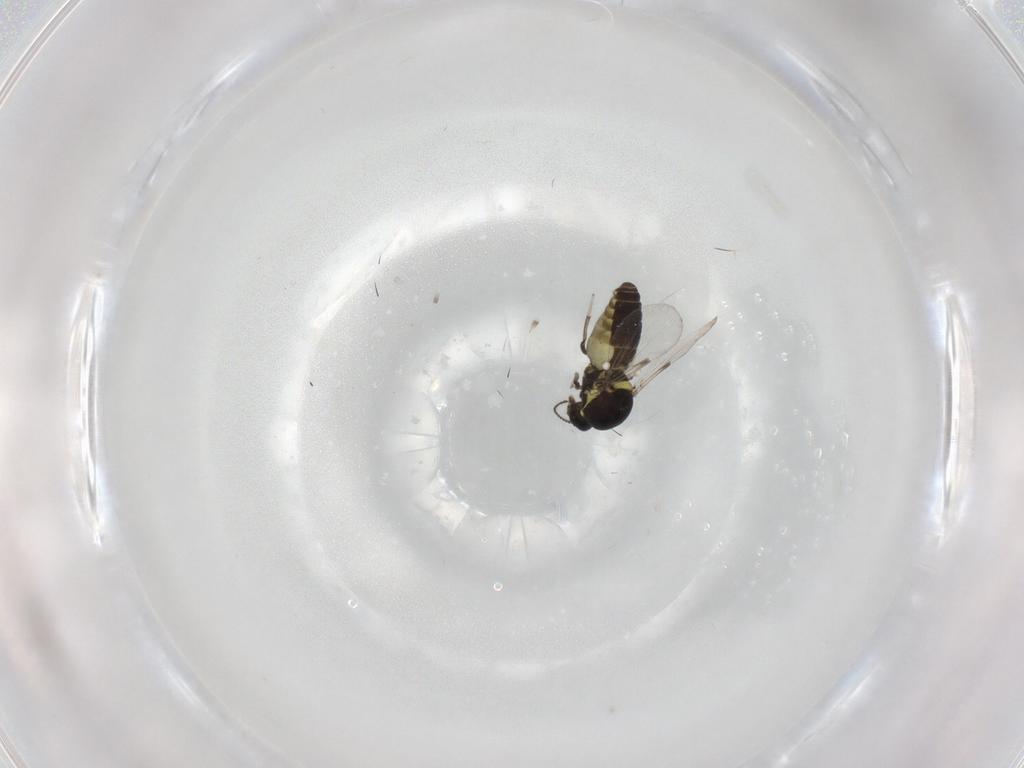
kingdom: Animalia
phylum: Arthropoda
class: Insecta
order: Diptera
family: Ceratopogonidae
